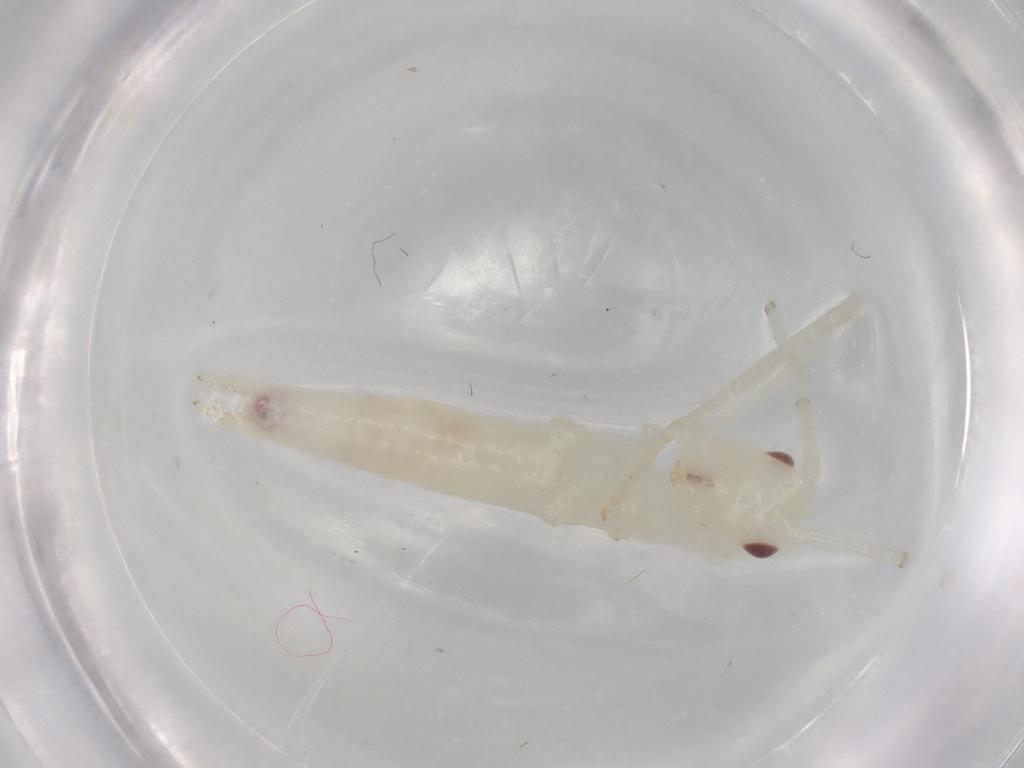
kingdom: Animalia
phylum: Arthropoda
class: Insecta
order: Orthoptera
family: Oecanthidae
